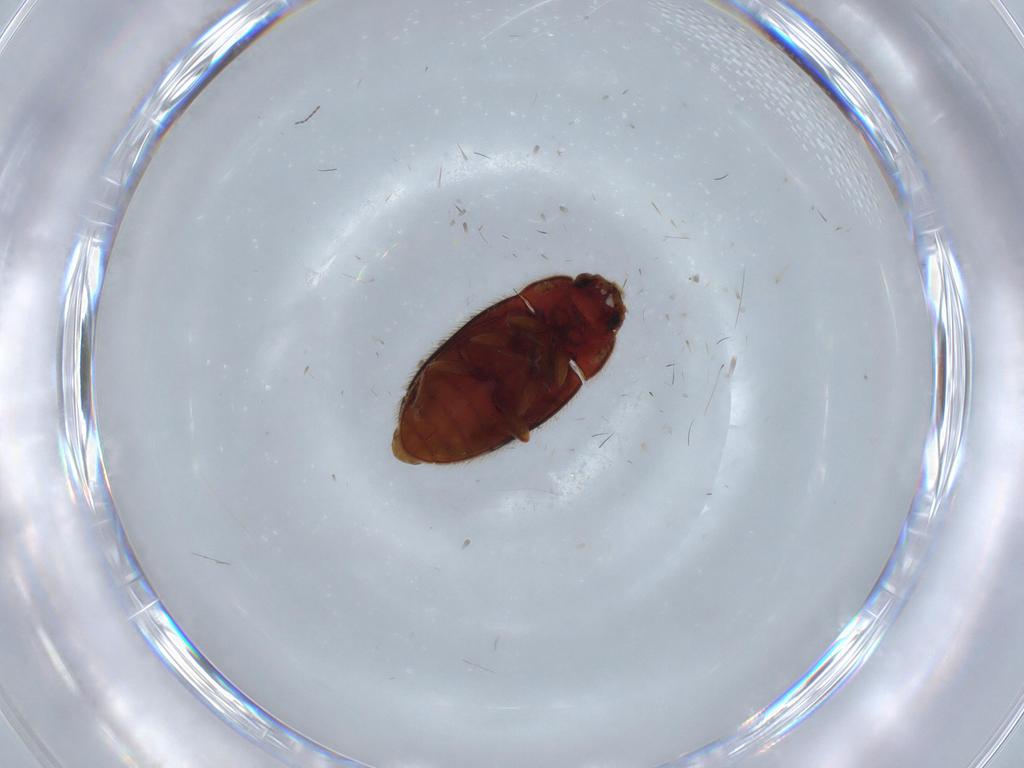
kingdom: Animalia
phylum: Arthropoda
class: Insecta
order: Coleoptera
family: Biphyllidae
